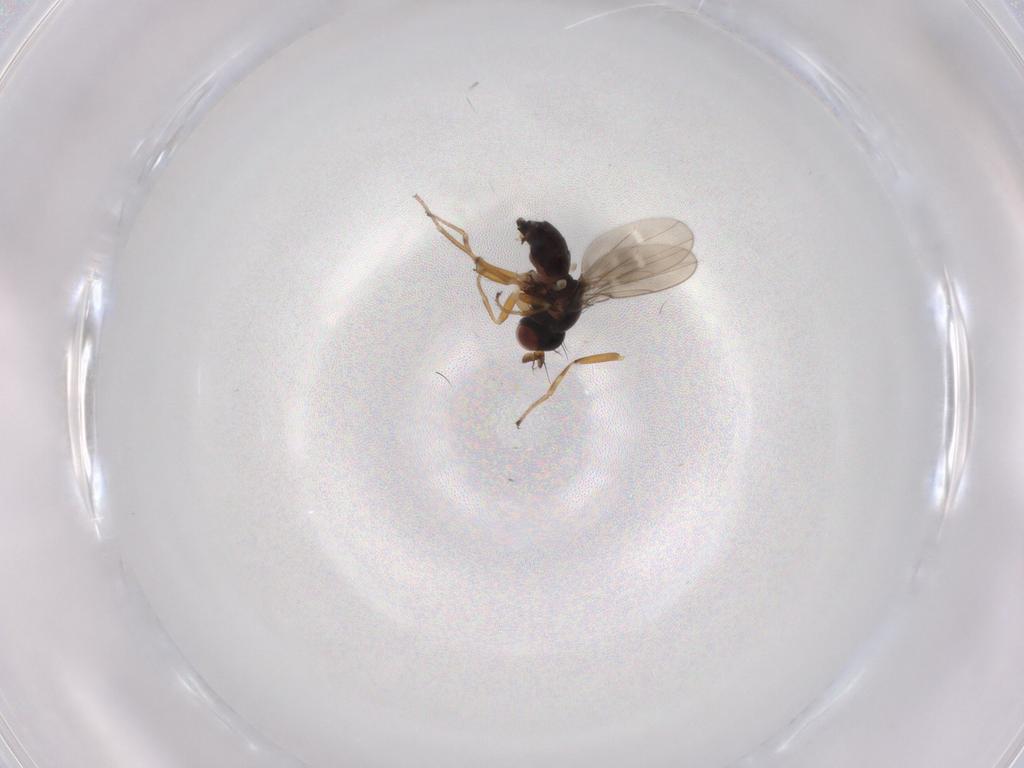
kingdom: Animalia
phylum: Arthropoda
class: Insecta
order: Diptera
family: Ephydridae
